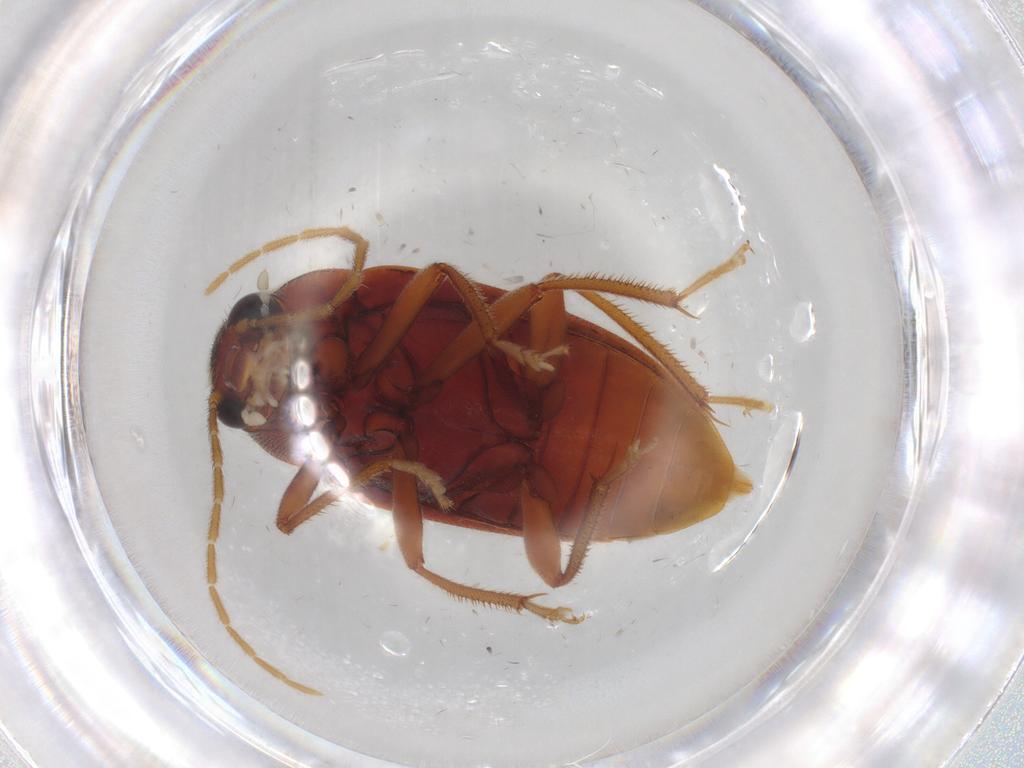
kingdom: Animalia
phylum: Arthropoda
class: Insecta
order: Coleoptera
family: Ptilodactylidae
